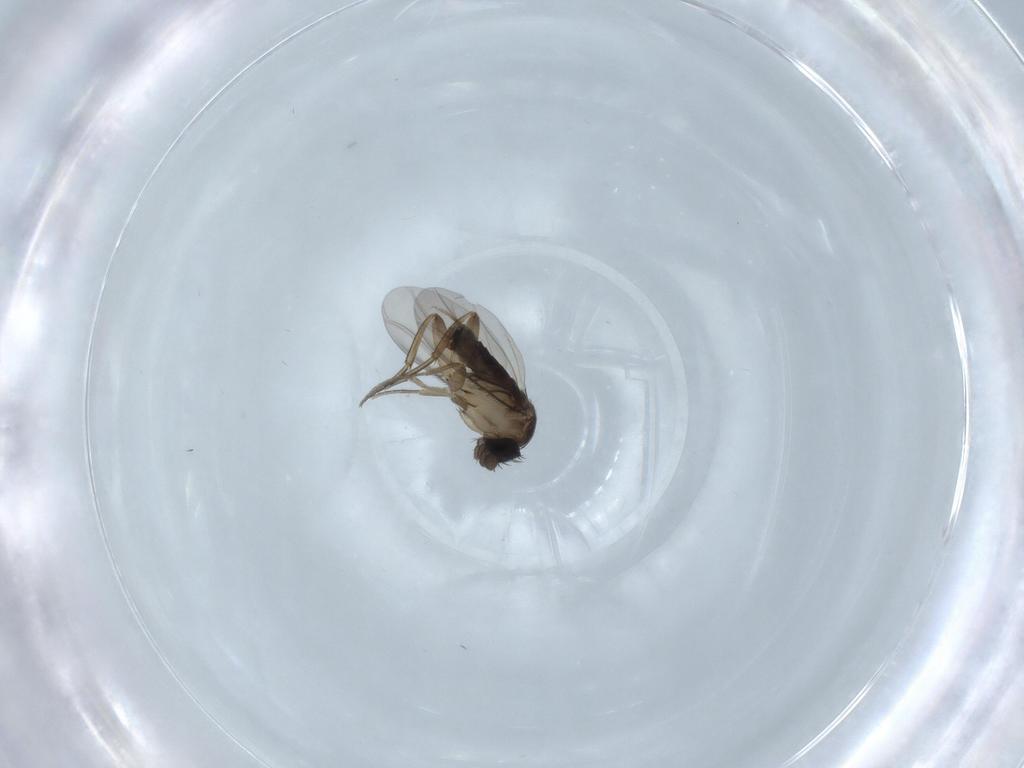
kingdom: Animalia
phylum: Arthropoda
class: Insecta
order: Diptera
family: Phoridae
